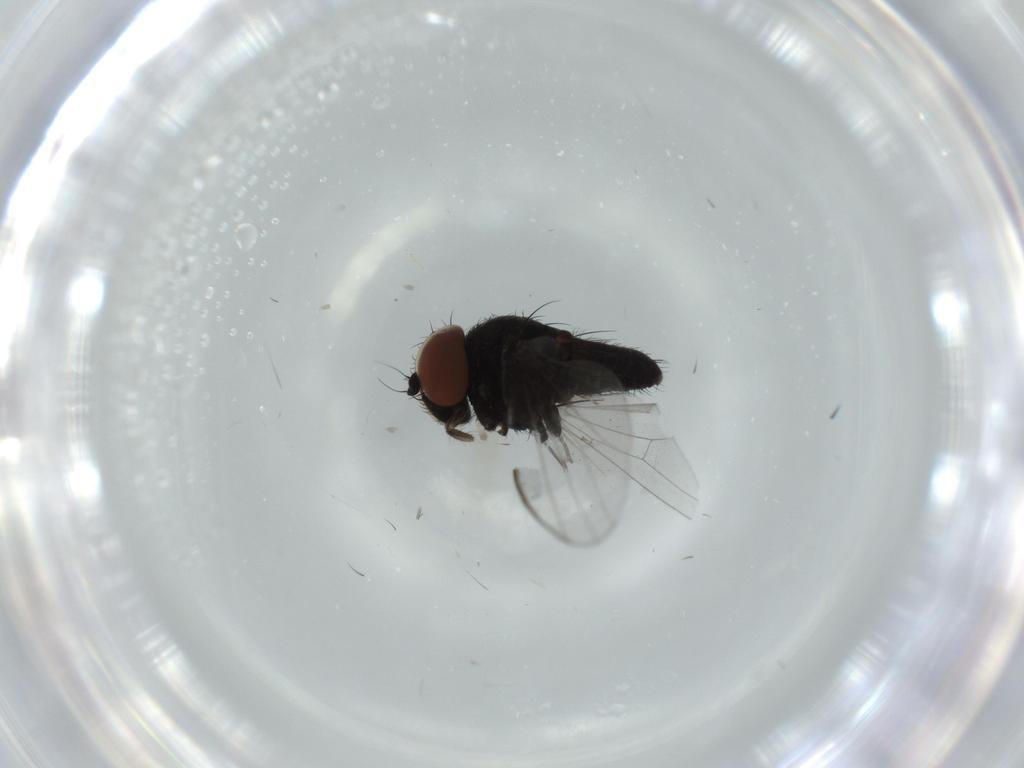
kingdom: Animalia
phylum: Arthropoda
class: Insecta
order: Diptera
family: Milichiidae
